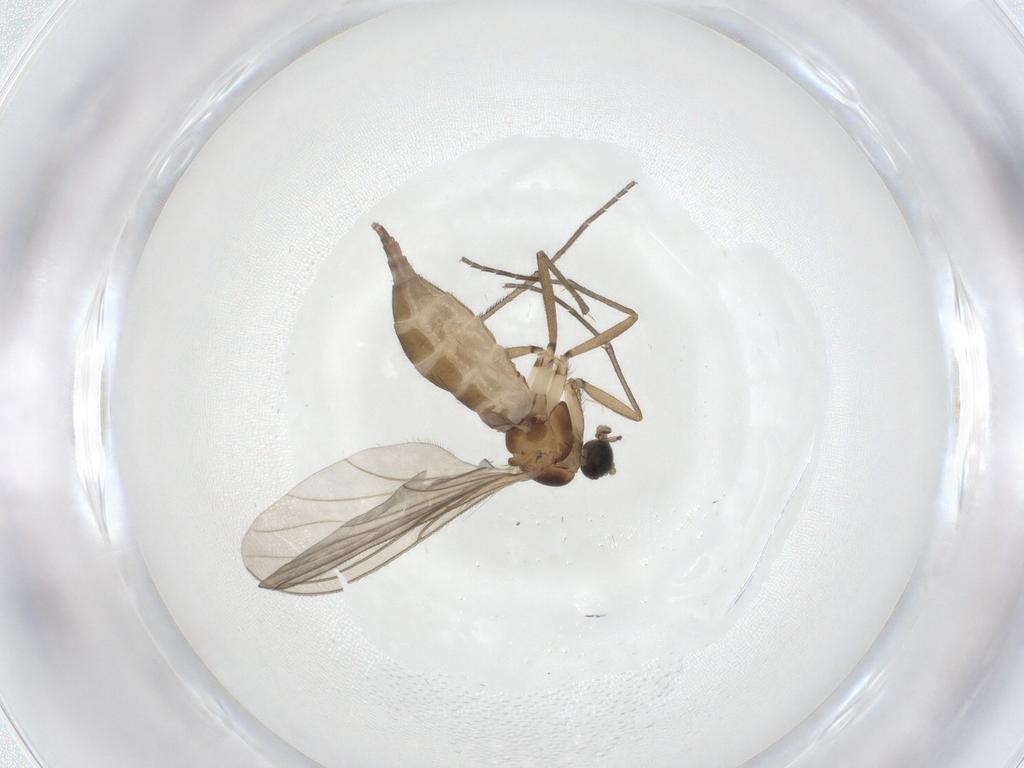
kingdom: Animalia
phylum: Arthropoda
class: Insecta
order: Diptera
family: Sciaridae
